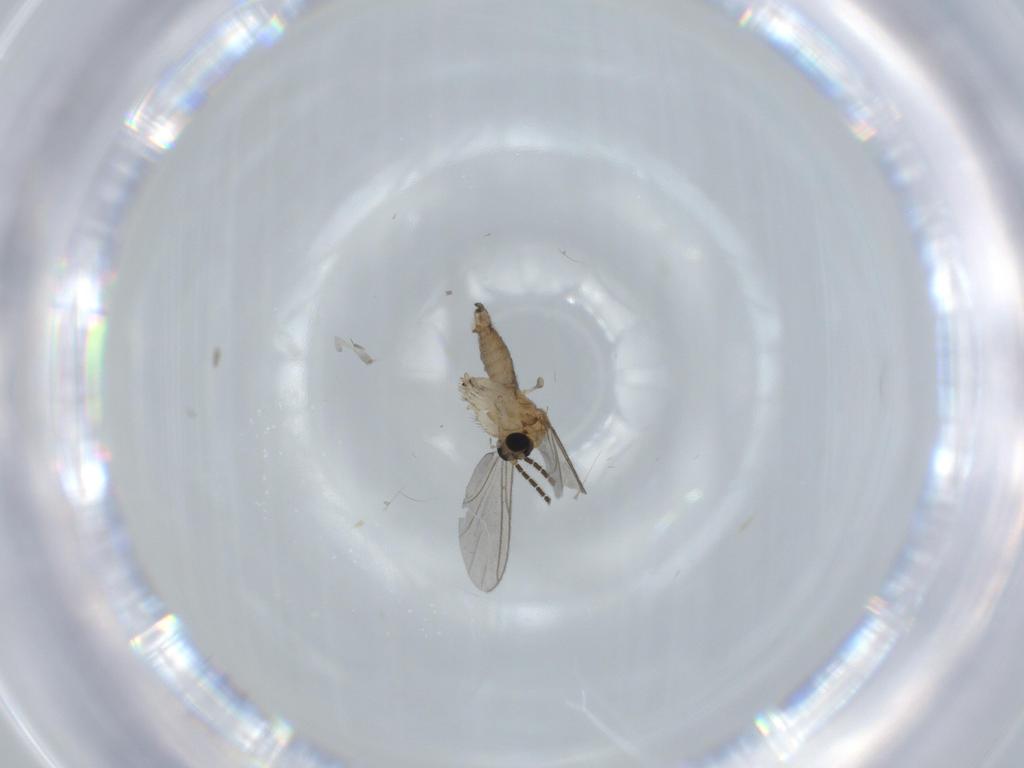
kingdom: Animalia
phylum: Arthropoda
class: Insecta
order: Diptera
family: Sciaridae
